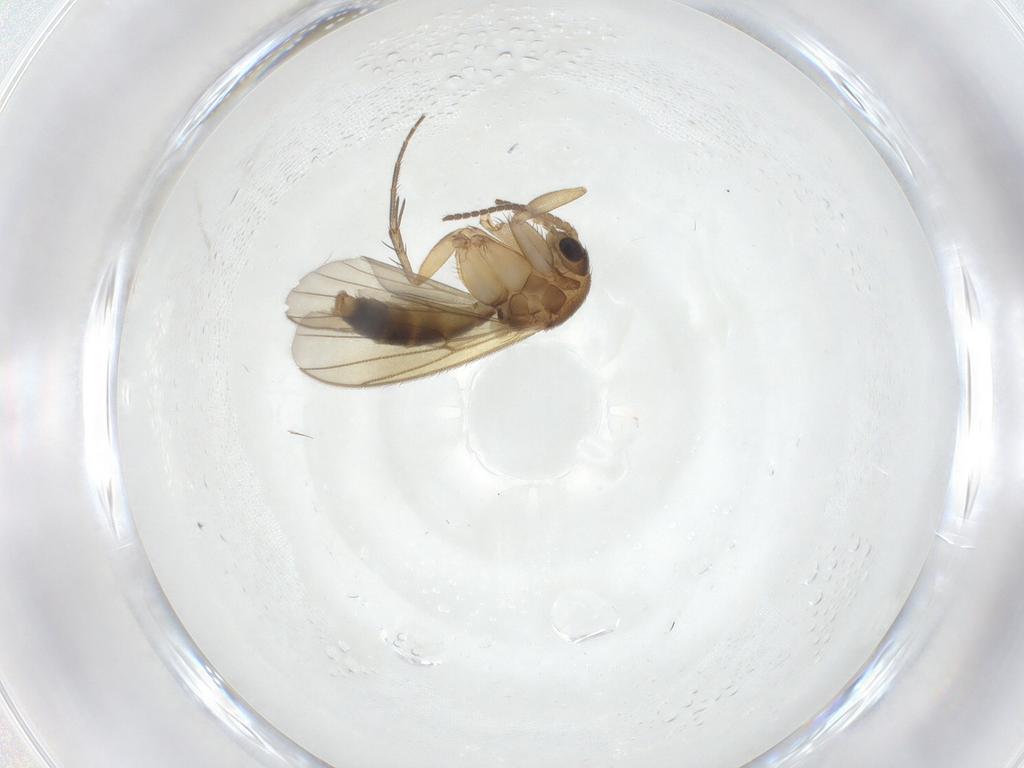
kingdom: Animalia
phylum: Arthropoda
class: Insecta
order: Diptera
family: Mycetophilidae
